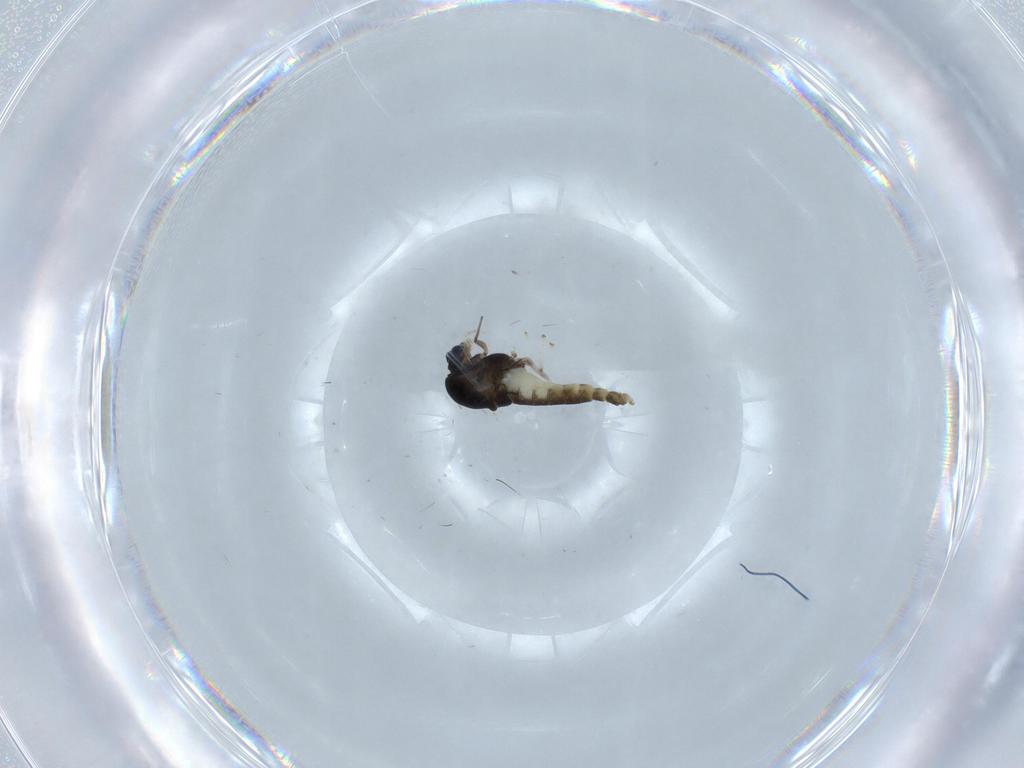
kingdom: Animalia
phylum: Arthropoda
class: Insecta
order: Diptera
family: Chironomidae
